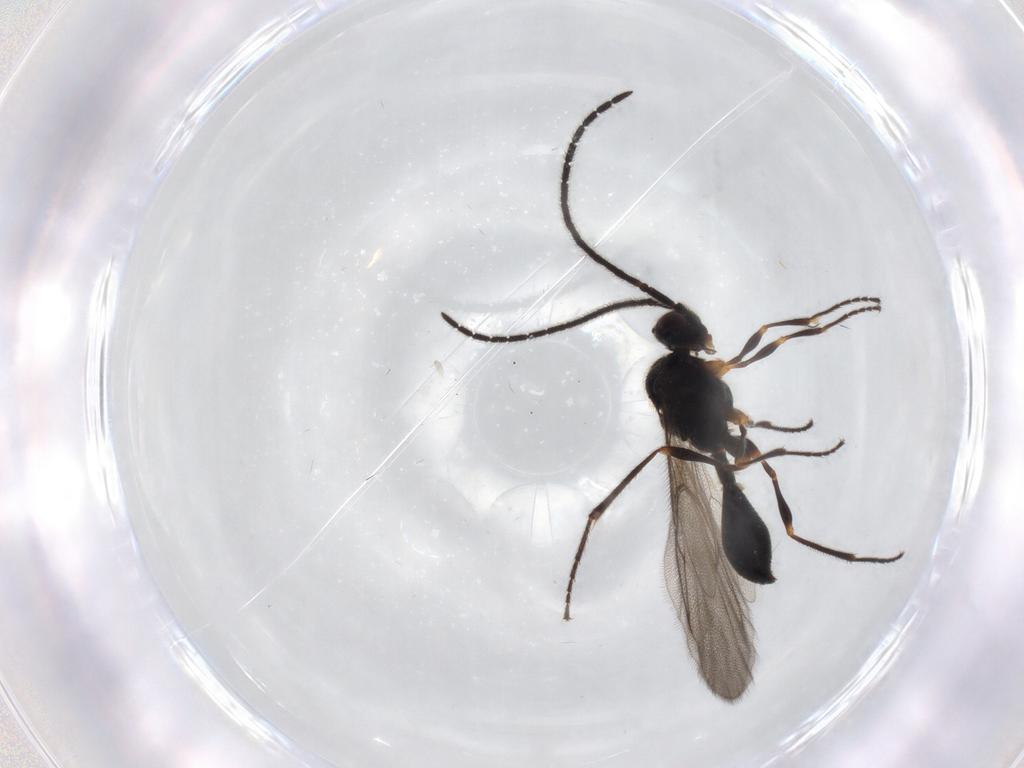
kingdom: Animalia
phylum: Arthropoda
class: Insecta
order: Hymenoptera
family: Diapriidae
